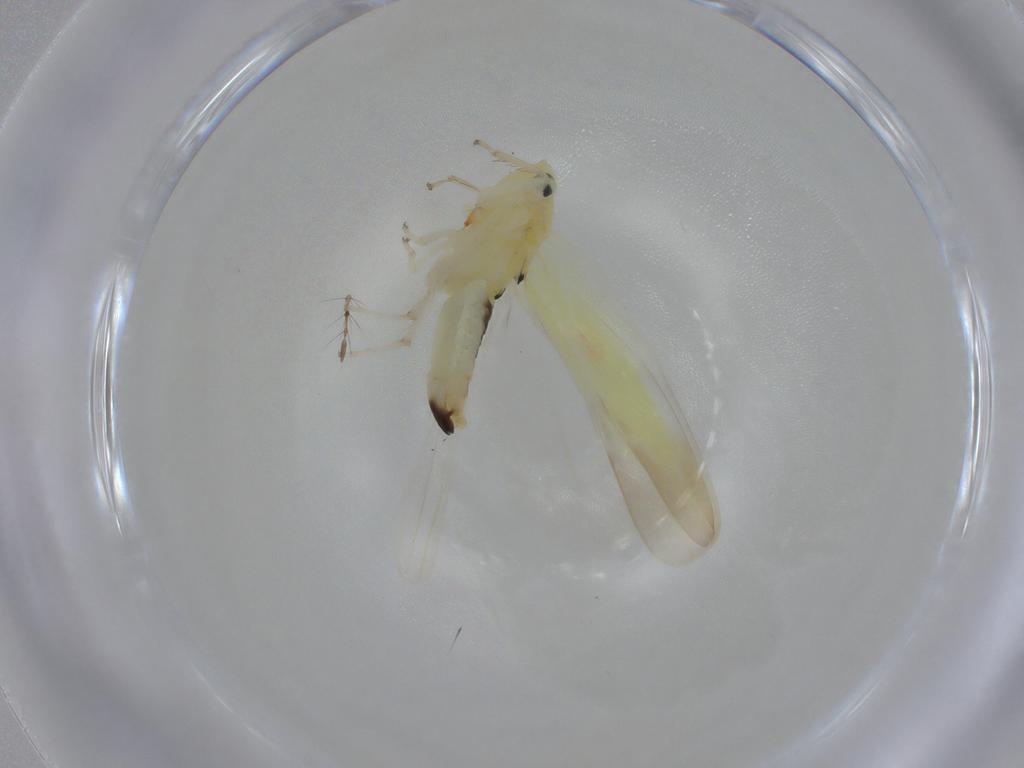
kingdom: Animalia
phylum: Arthropoda
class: Insecta
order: Hemiptera
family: Cicadellidae
